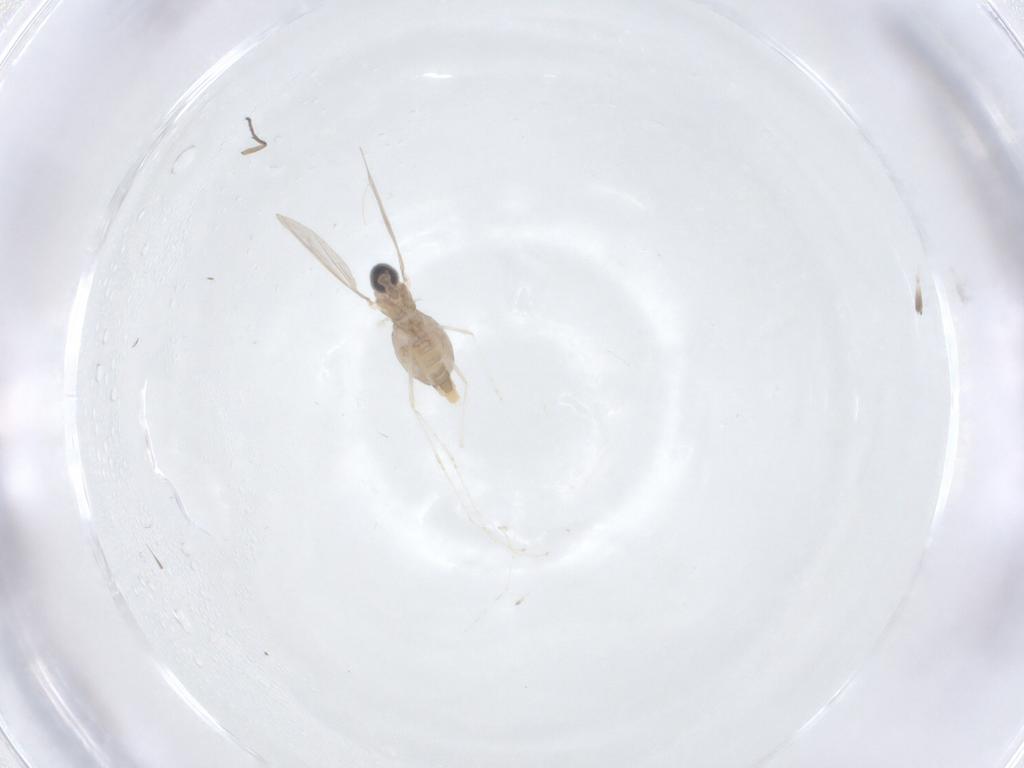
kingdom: Animalia
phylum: Arthropoda
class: Insecta
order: Diptera
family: Cecidomyiidae
